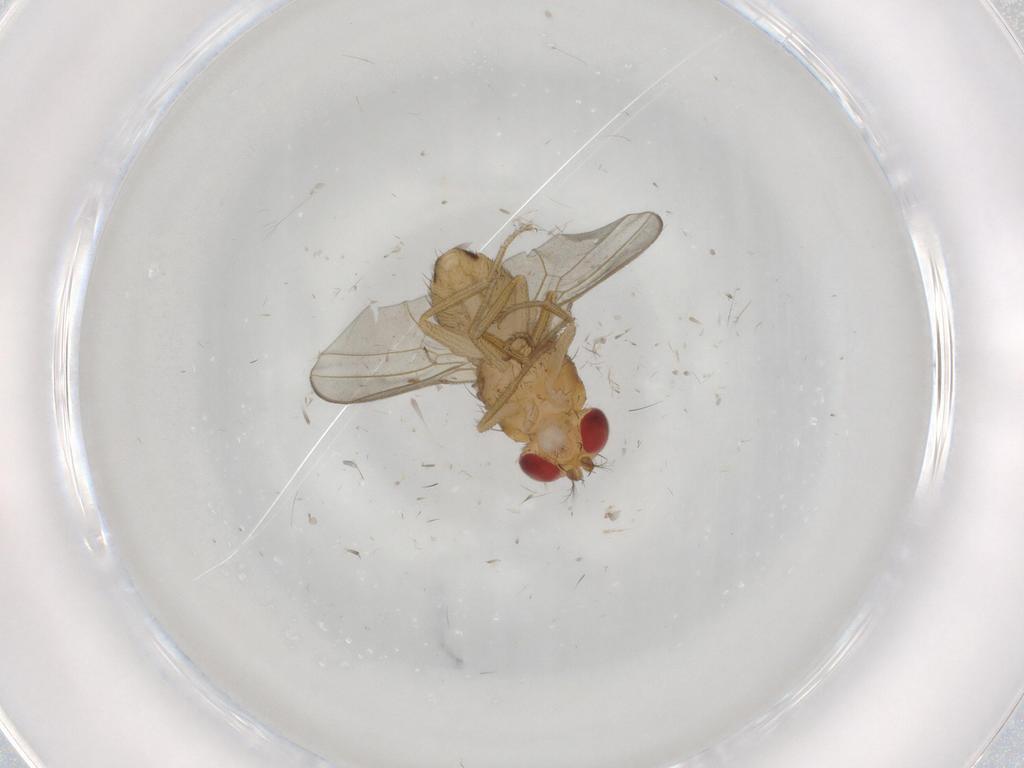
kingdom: Animalia
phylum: Arthropoda
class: Insecta
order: Diptera
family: Drosophilidae
